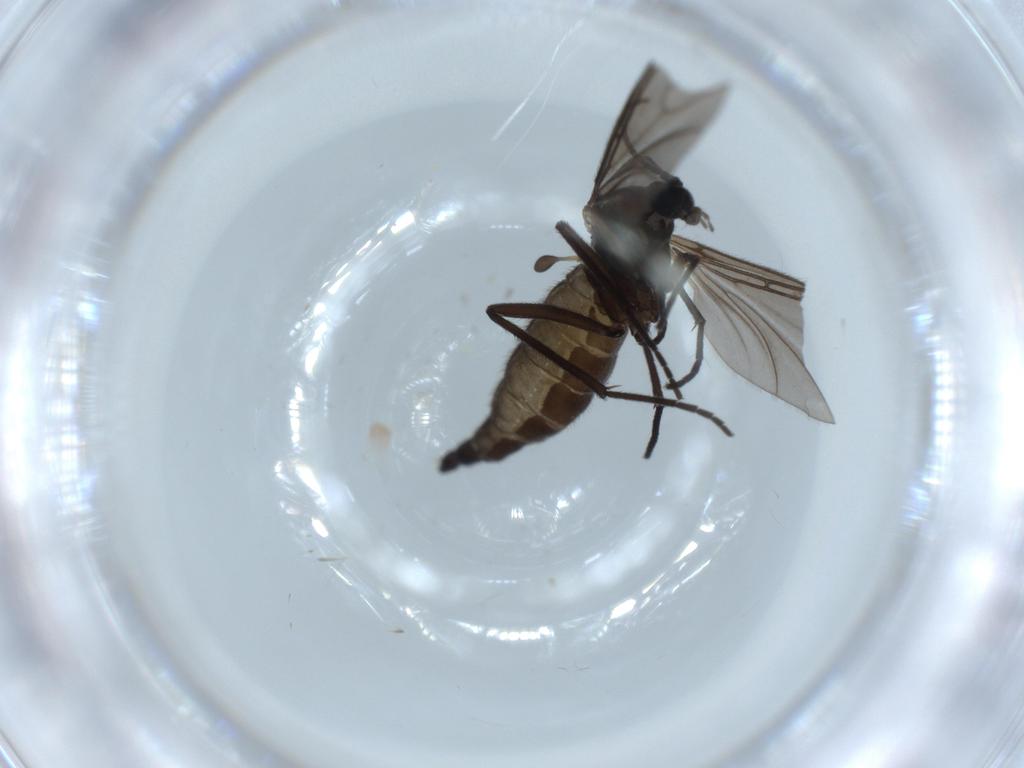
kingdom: Animalia
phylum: Arthropoda
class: Insecta
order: Diptera
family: Sciaridae
